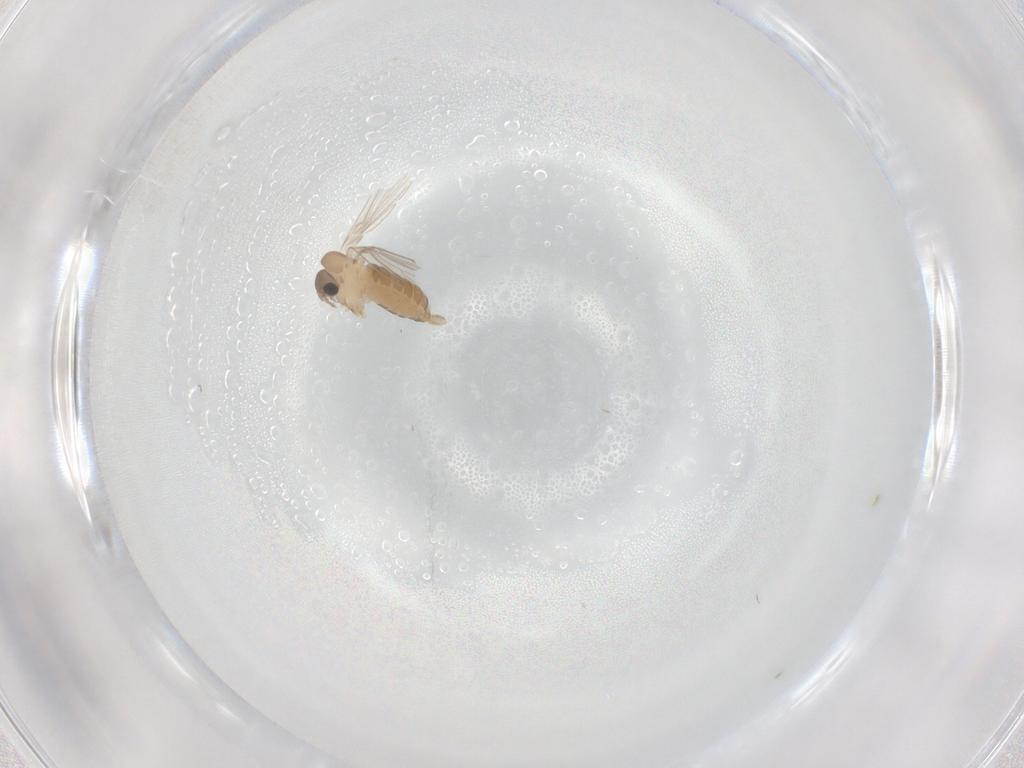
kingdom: Animalia
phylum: Arthropoda
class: Insecta
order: Diptera
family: Psychodidae
